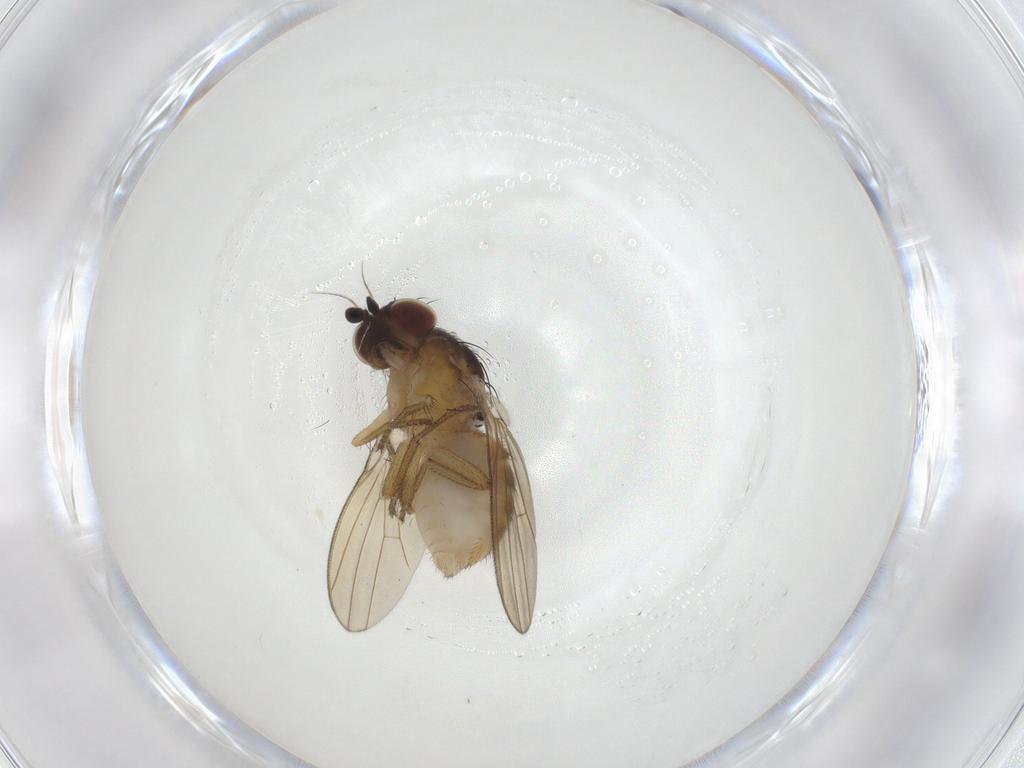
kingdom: Animalia
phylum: Arthropoda
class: Insecta
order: Diptera
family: Chironomidae
